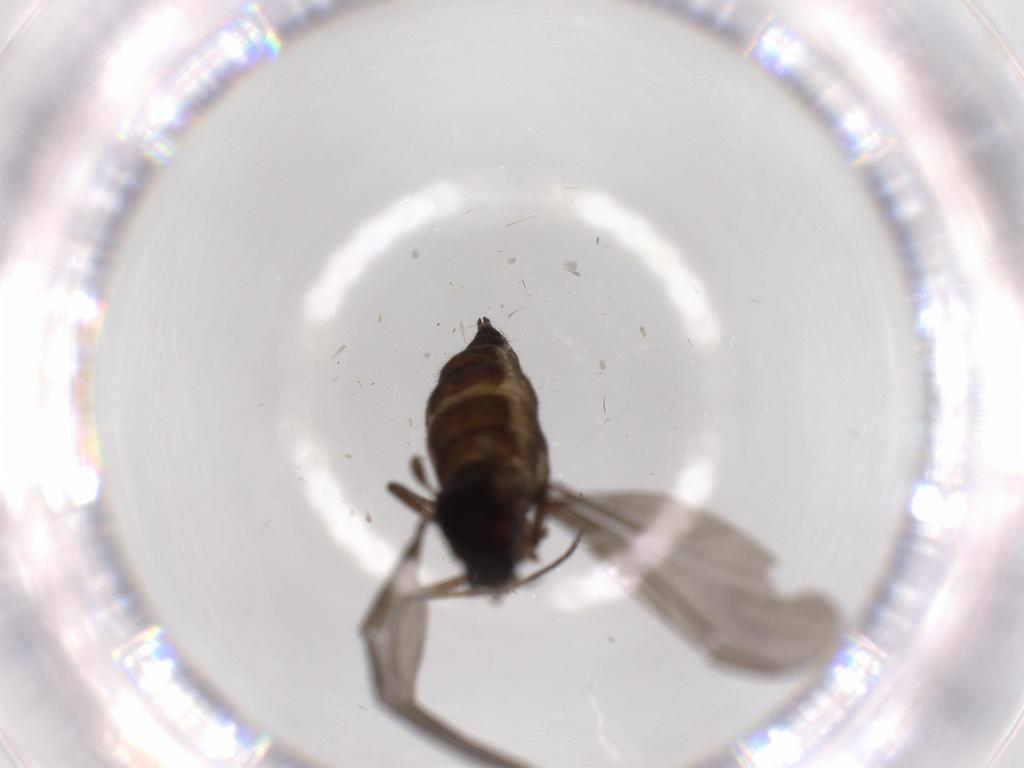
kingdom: Animalia
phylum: Arthropoda
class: Insecta
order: Diptera
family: Sciaridae
